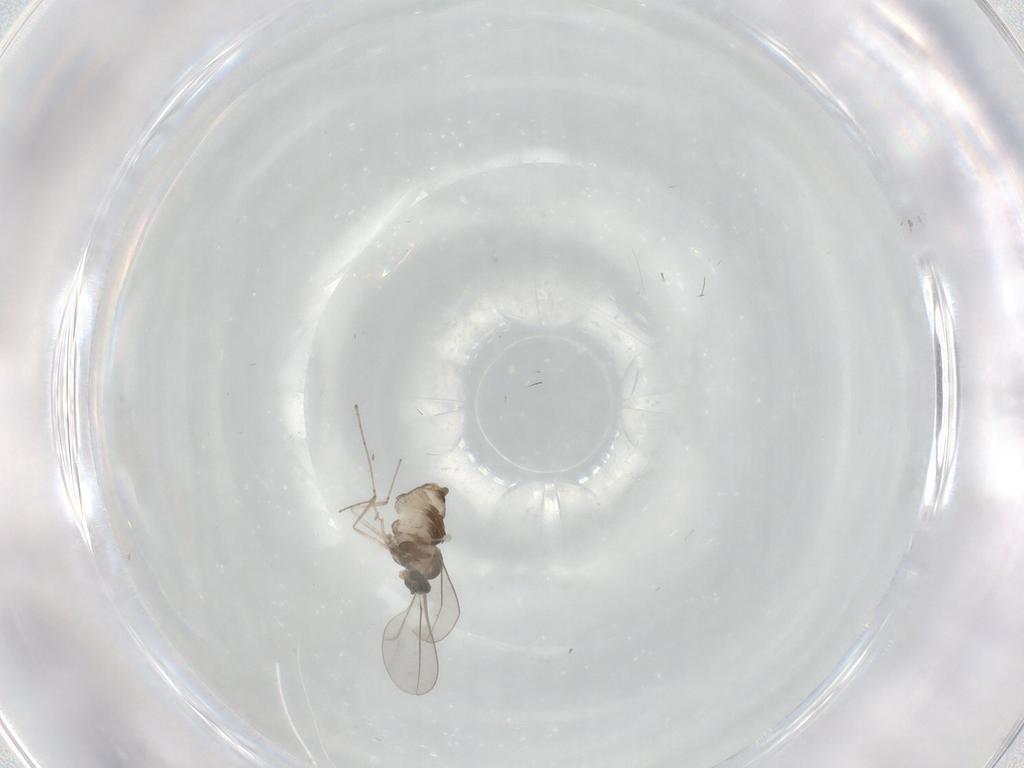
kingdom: Animalia
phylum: Arthropoda
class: Insecta
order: Diptera
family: Cecidomyiidae
